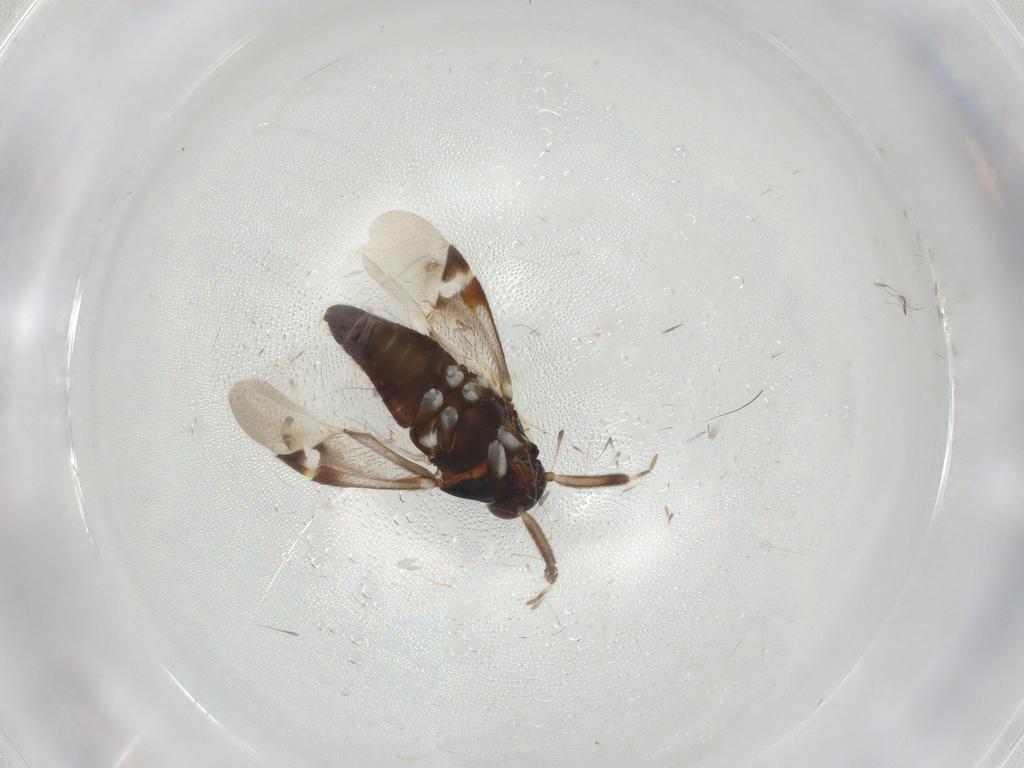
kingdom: Animalia
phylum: Arthropoda
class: Insecta
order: Hemiptera
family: Miridae
